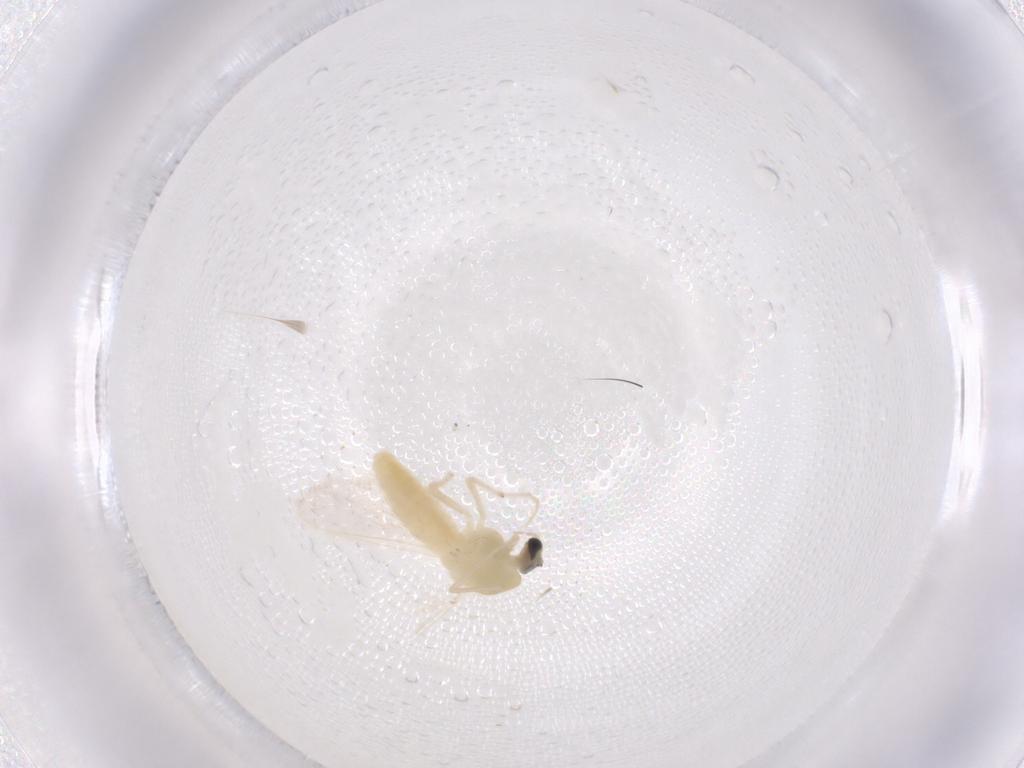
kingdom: Animalia
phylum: Arthropoda
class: Insecta
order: Diptera
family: Chironomidae
